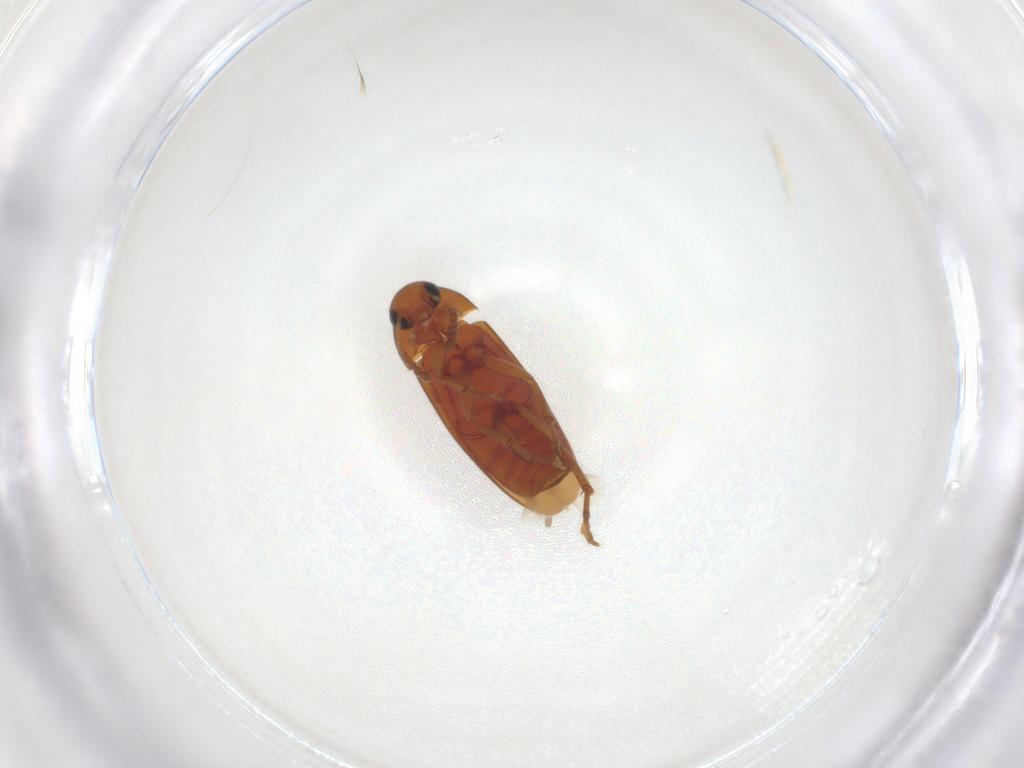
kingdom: Animalia
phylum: Arthropoda
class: Insecta
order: Coleoptera
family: Scraptiidae
